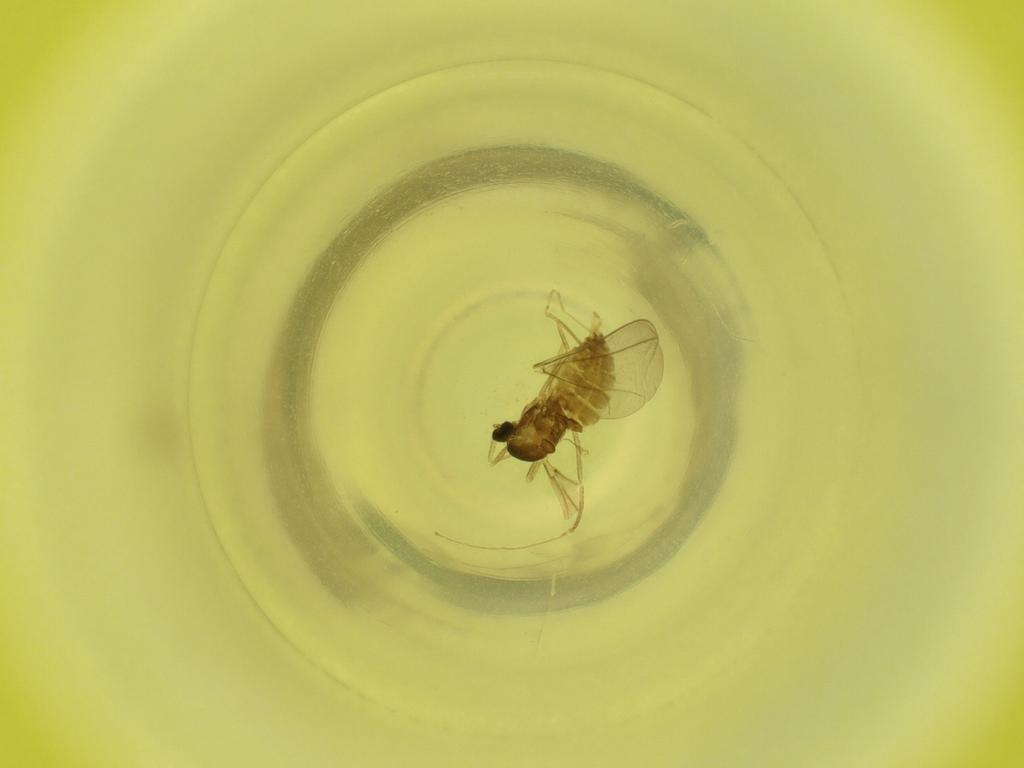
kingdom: Animalia
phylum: Arthropoda
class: Insecta
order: Diptera
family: Cecidomyiidae
